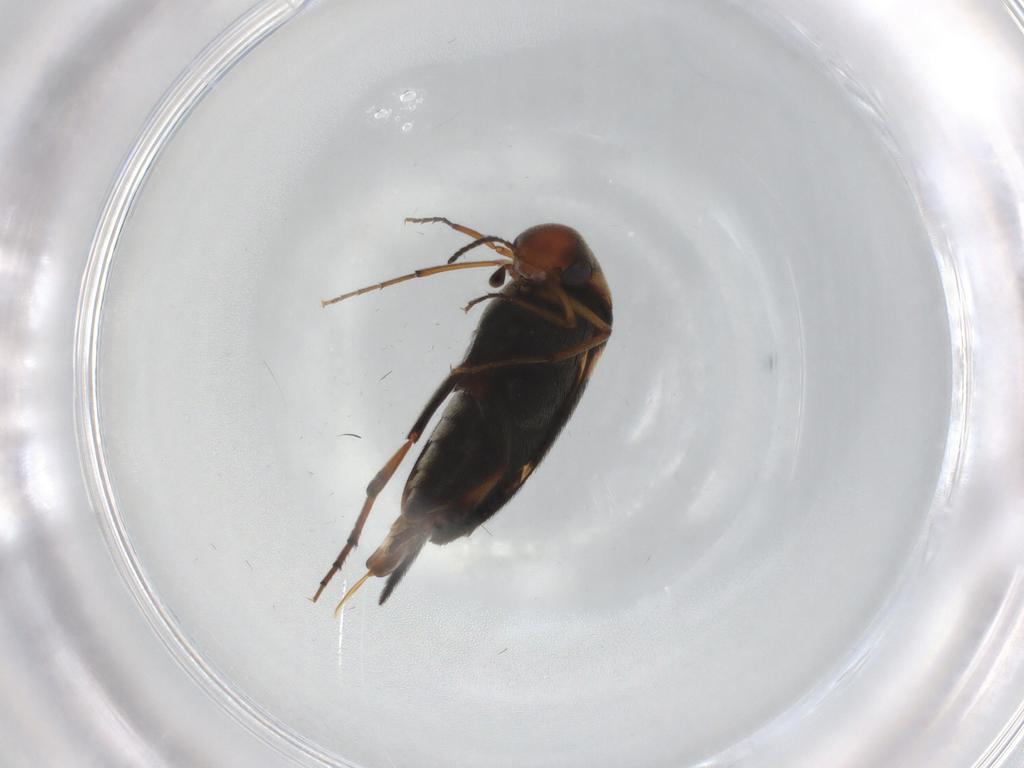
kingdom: Animalia
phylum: Arthropoda
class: Insecta
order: Coleoptera
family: Mordellidae
